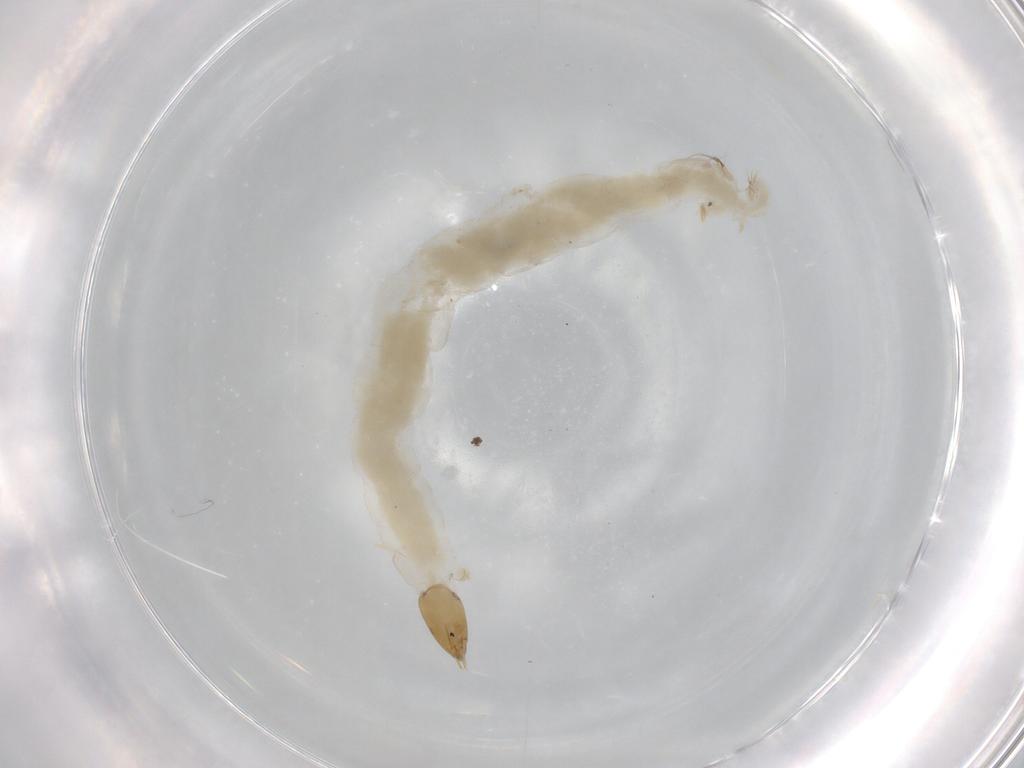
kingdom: Animalia
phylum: Arthropoda
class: Insecta
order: Diptera
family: Chironomidae
